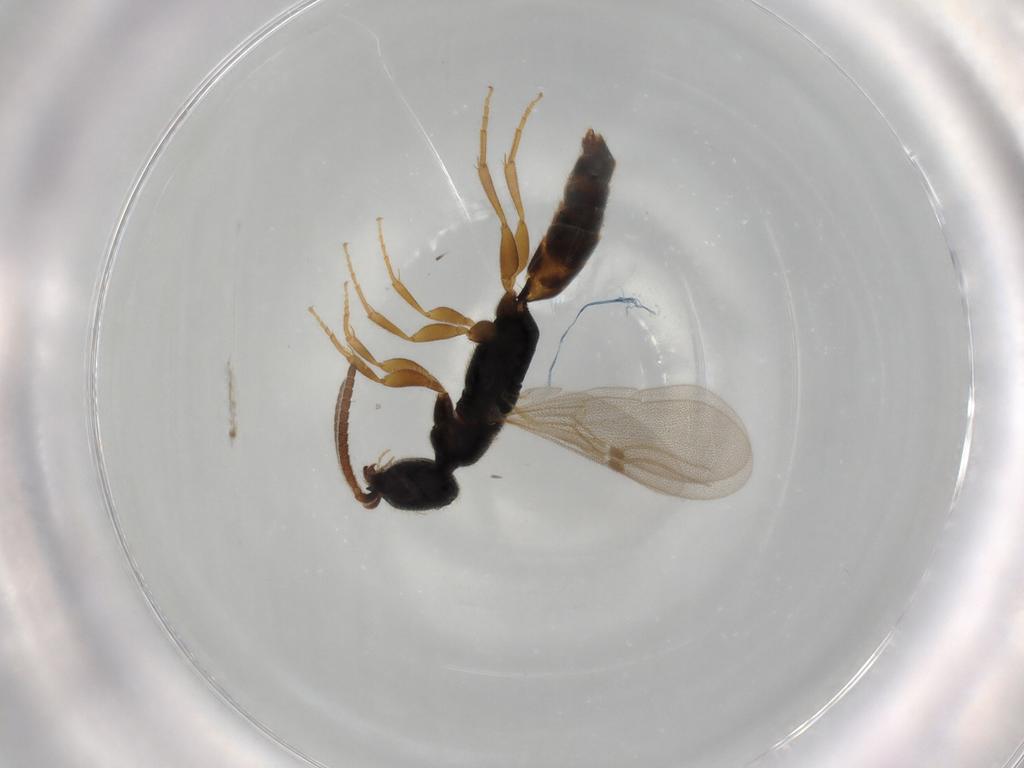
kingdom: Animalia
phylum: Arthropoda
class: Insecta
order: Hymenoptera
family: Bethylidae
